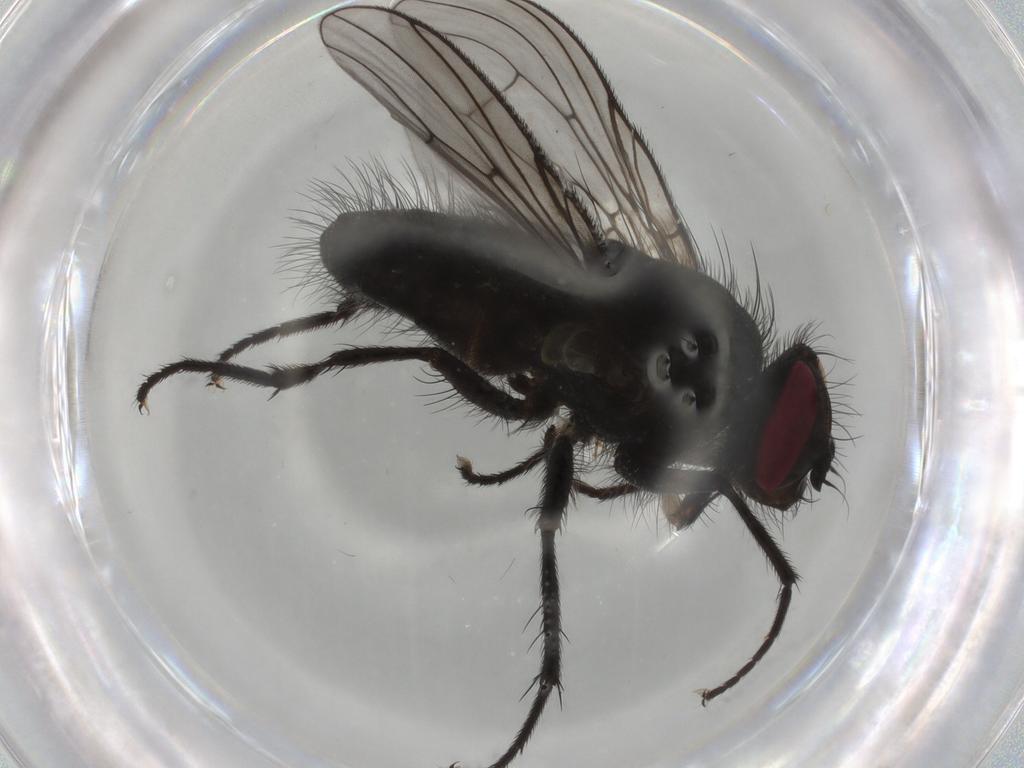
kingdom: Animalia
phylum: Arthropoda
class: Insecta
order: Diptera
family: Muscidae
